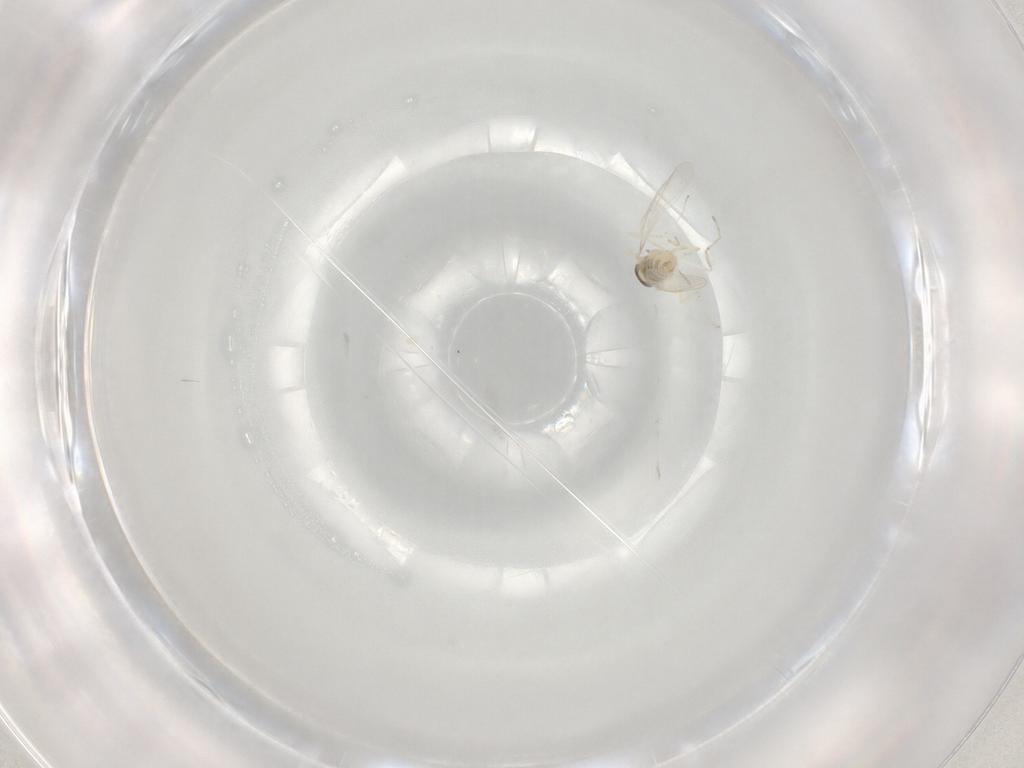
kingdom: Animalia
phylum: Arthropoda
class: Insecta
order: Diptera
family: Cecidomyiidae
